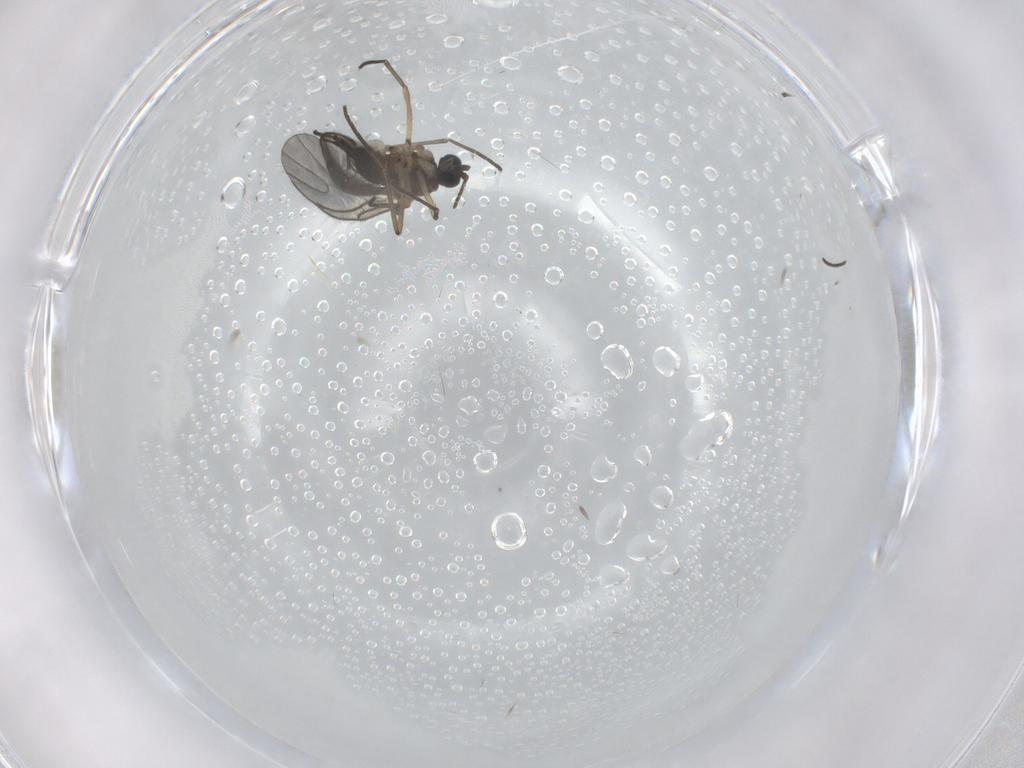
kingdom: Animalia
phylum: Arthropoda
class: Insecta
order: Diptera
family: Sciaridae
